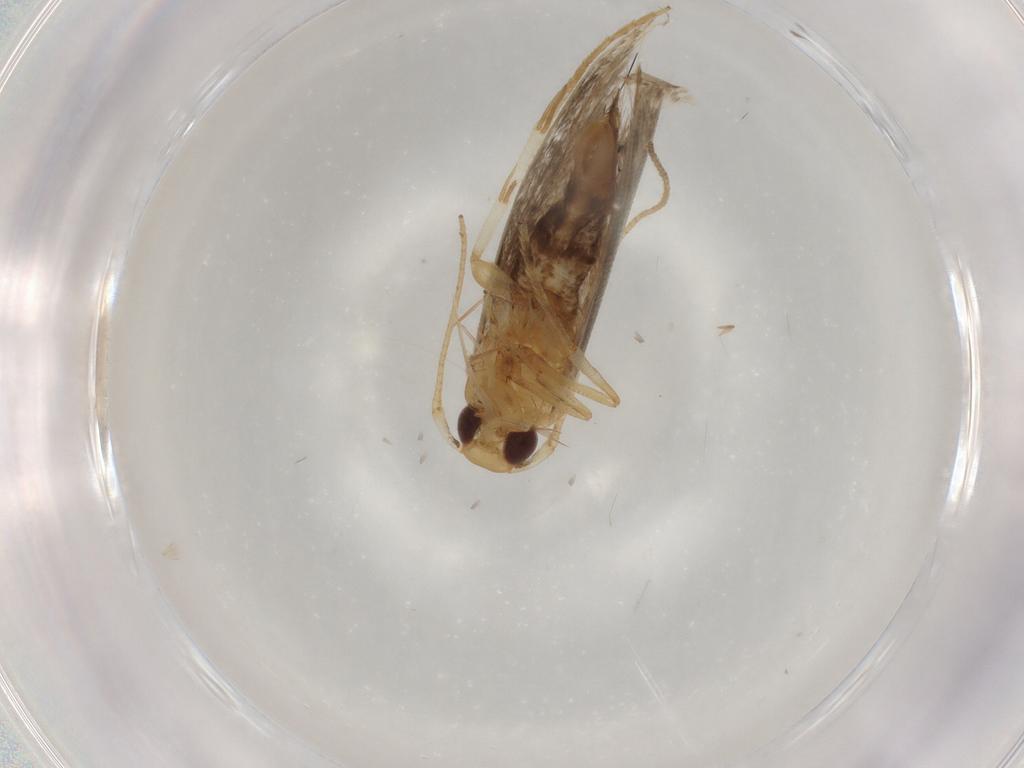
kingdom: Animalia
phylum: Arthropoda
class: Insecta
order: Lepidoptera
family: Cosmopterigidae
